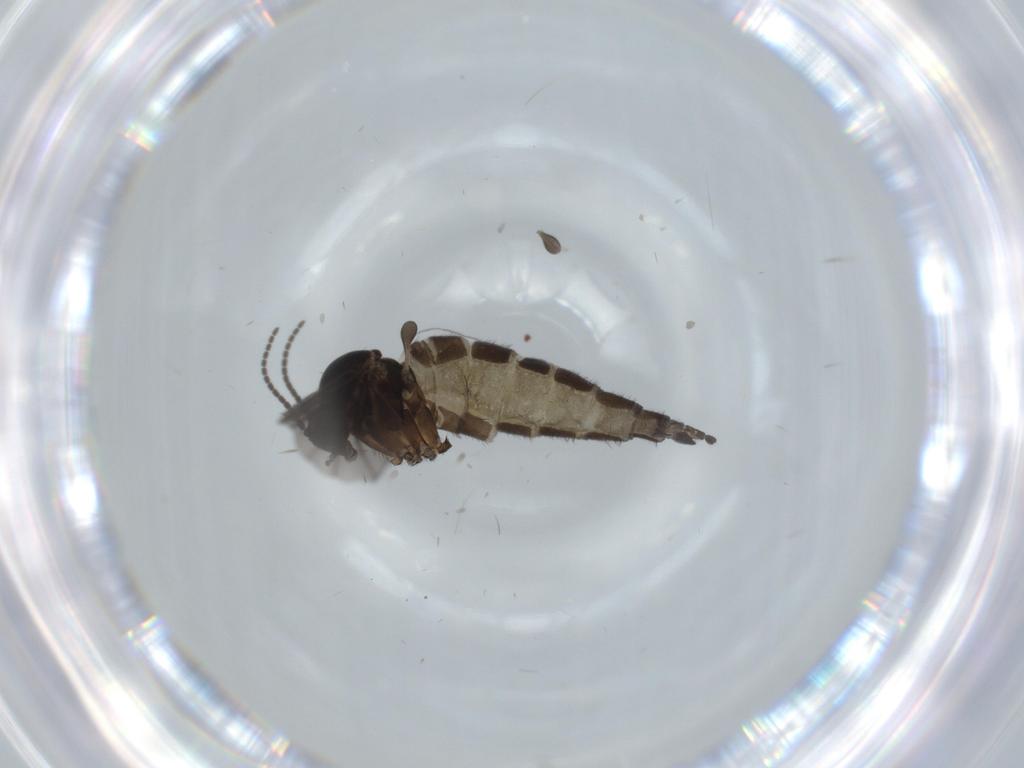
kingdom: Animalia
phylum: Arthropoda
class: Insecta
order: Diptera
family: Sciaridae
